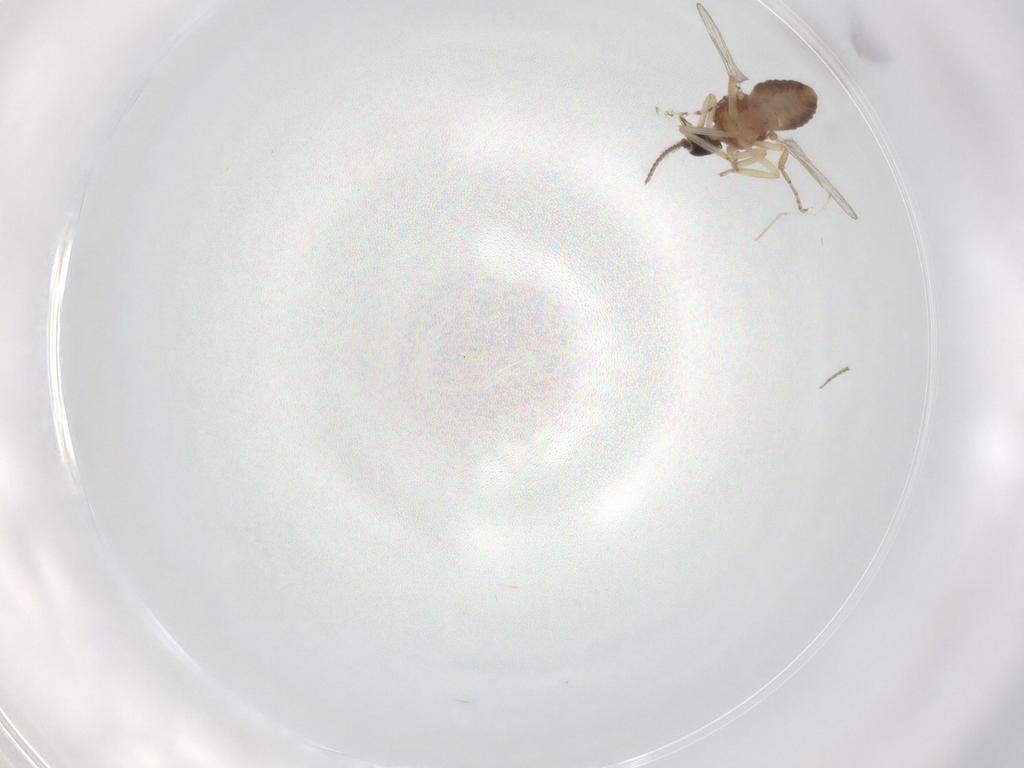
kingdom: Animalia
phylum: Arthropoda
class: Insecta
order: Diptera
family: Ceratopogonidae
